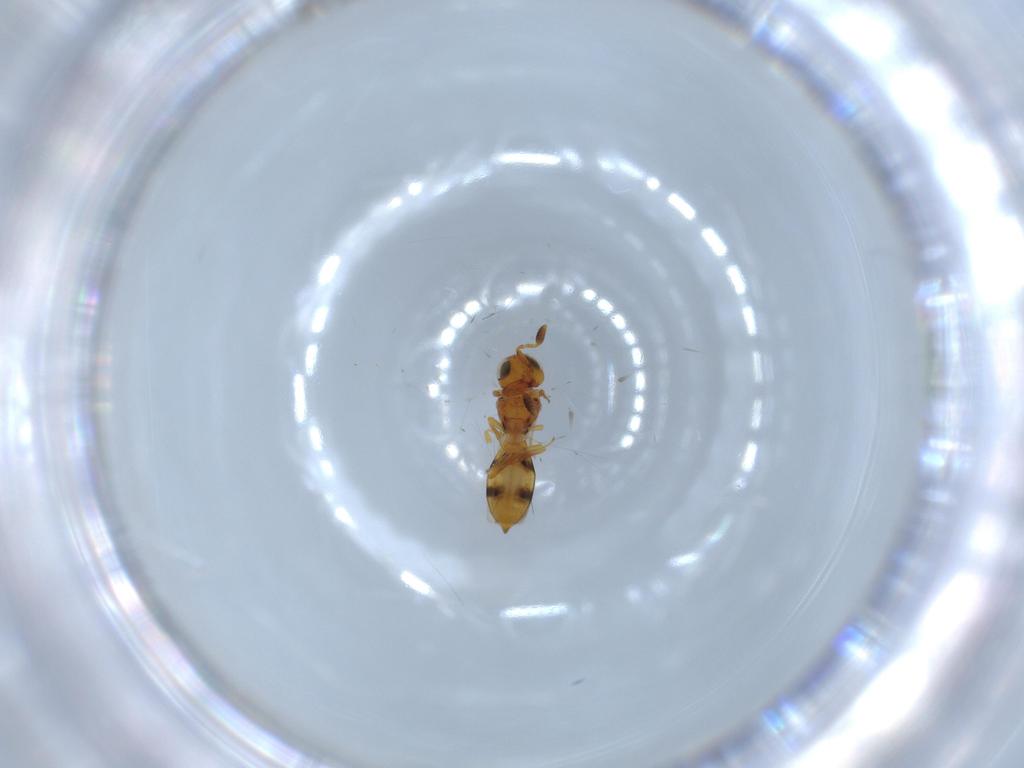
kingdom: Animalia
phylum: Arthropoda
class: Insecta
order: Hymenoptera
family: Scelionidae
